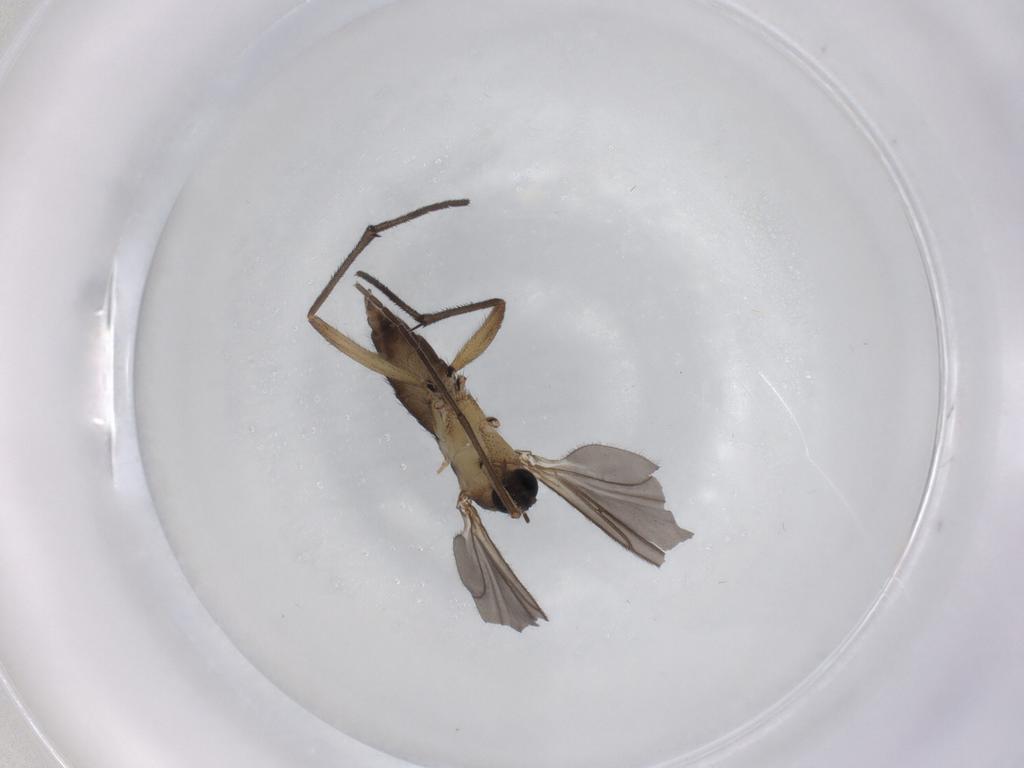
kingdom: Animalia
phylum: Arthropoda
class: Insecta
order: Diptera
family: Sciaridae
